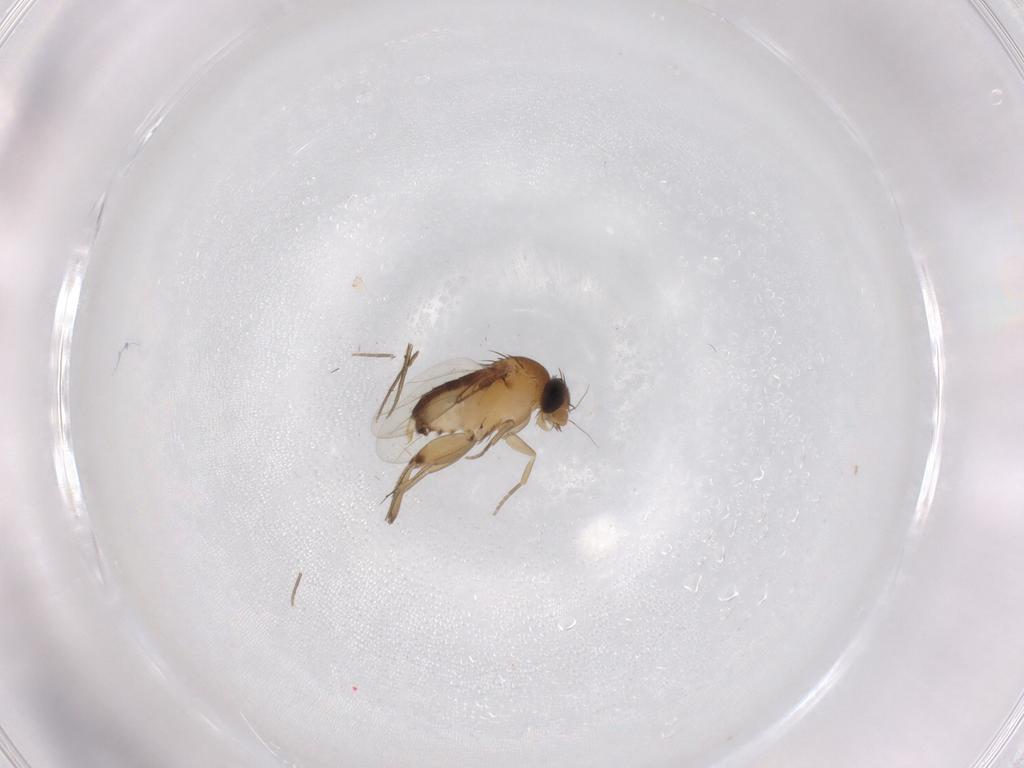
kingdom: Animalia
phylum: Arthropoda
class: Insecta
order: Diptera
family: Phoridae
